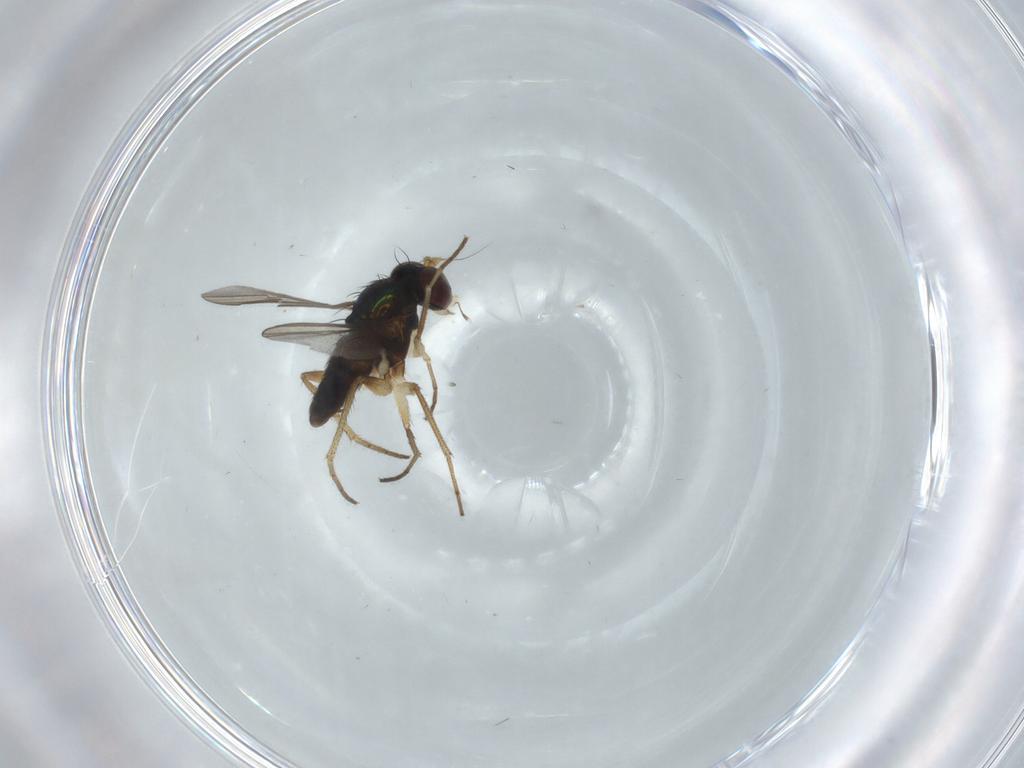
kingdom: Animalia
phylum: Arthropoda
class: Insecta
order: Diptera
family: Dolichopodidae
